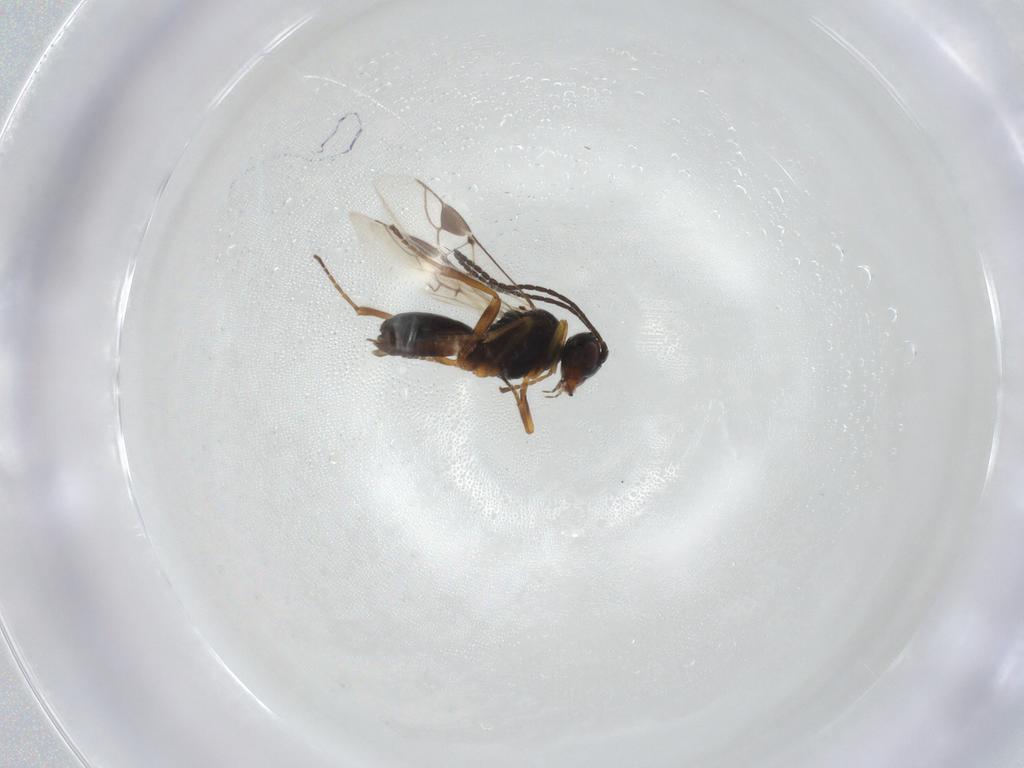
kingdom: Animalia
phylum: Arthropoda
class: Insecta
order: Hymenoptera
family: Braconidae
